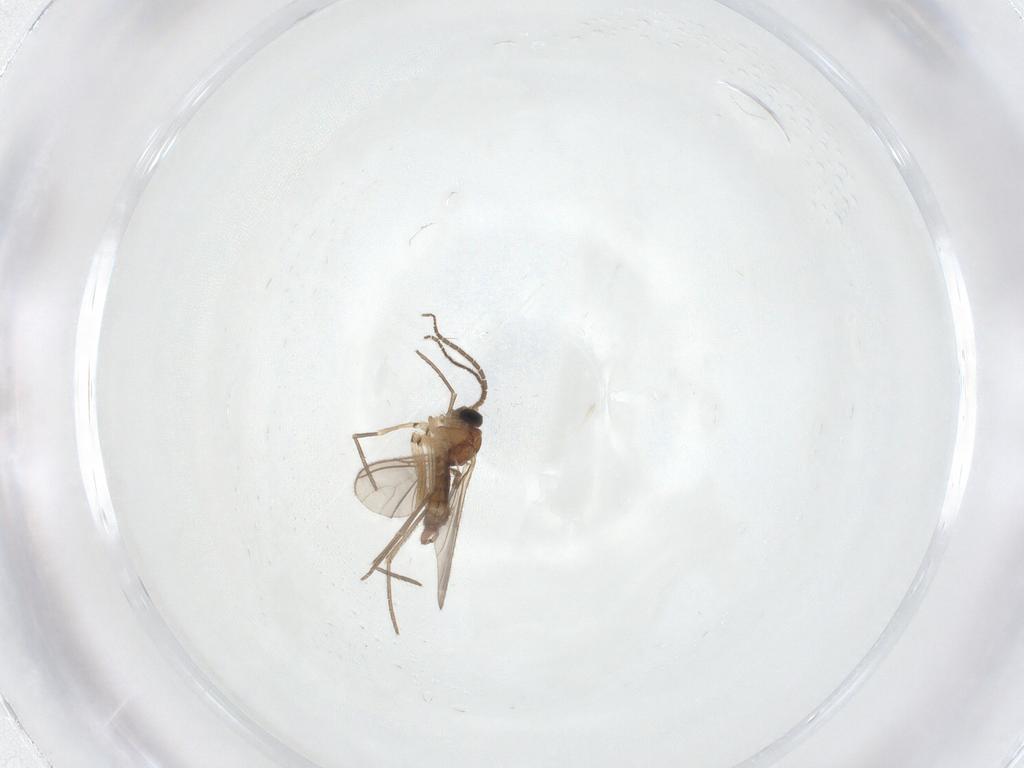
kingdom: Animalia
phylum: Arthropoda
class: Insecta
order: Diptera
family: Sciaridae
